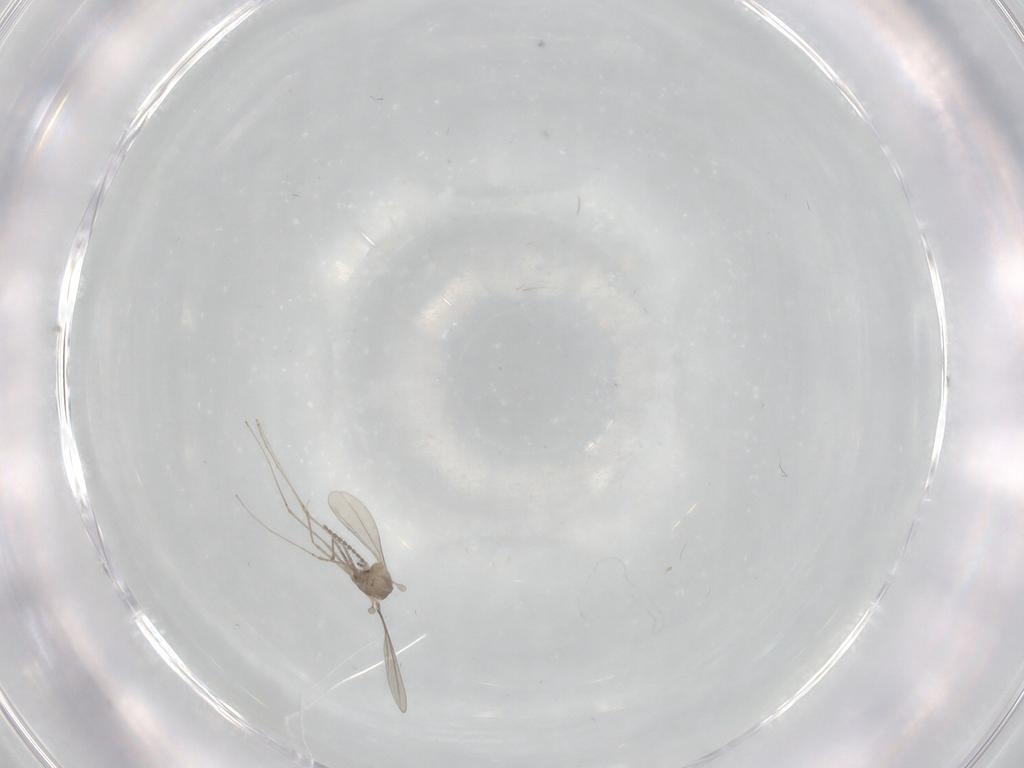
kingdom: Animalia
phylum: Arthropoda
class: Insecta
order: Diptera
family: Cecidomyiidae
